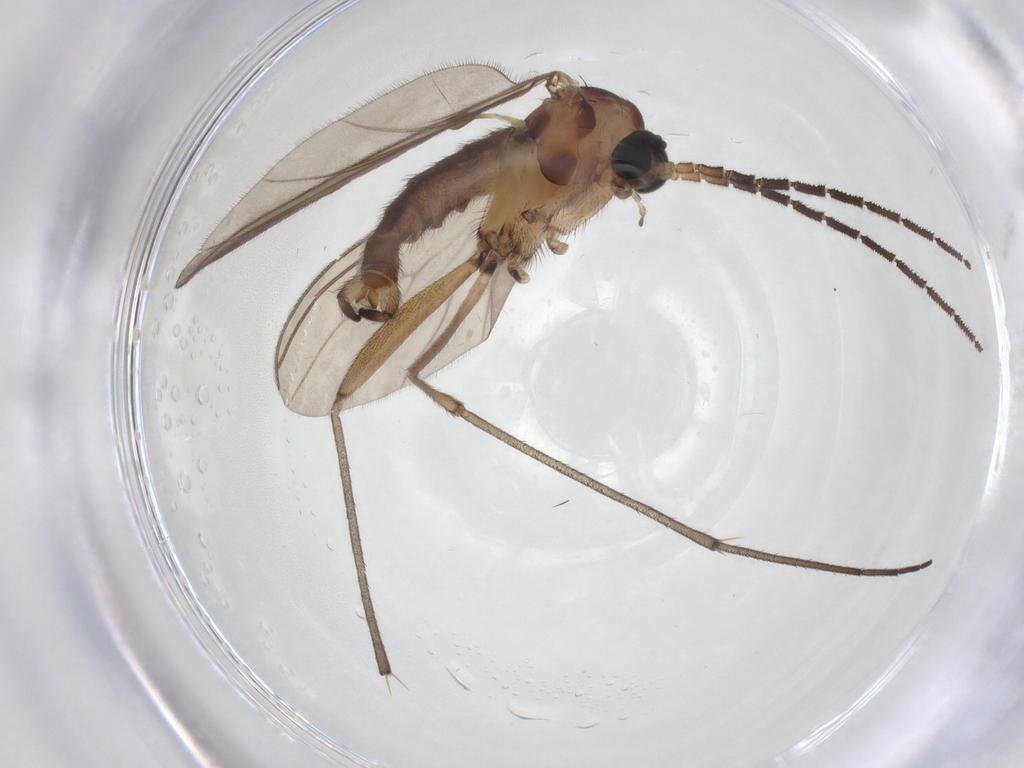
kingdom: Animalia
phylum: Arthropoda
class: Insecta
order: Diptera
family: Sciaridae
